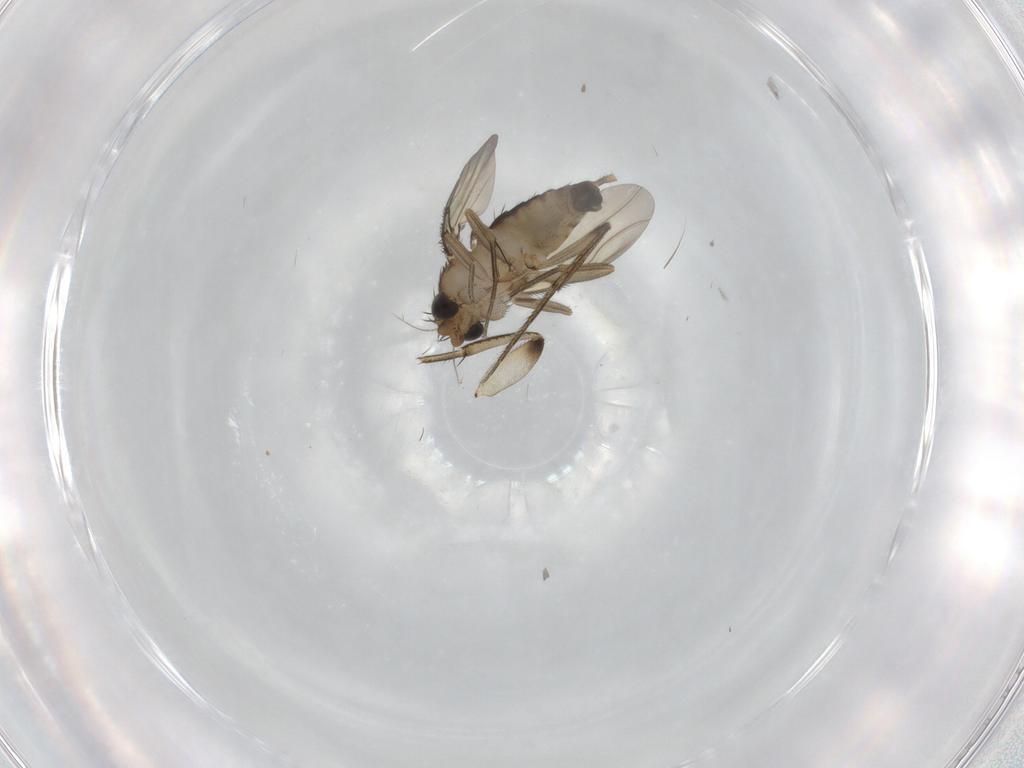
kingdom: Animalia
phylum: Arthropoda
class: Insecta
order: Diptera
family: Phoridae
